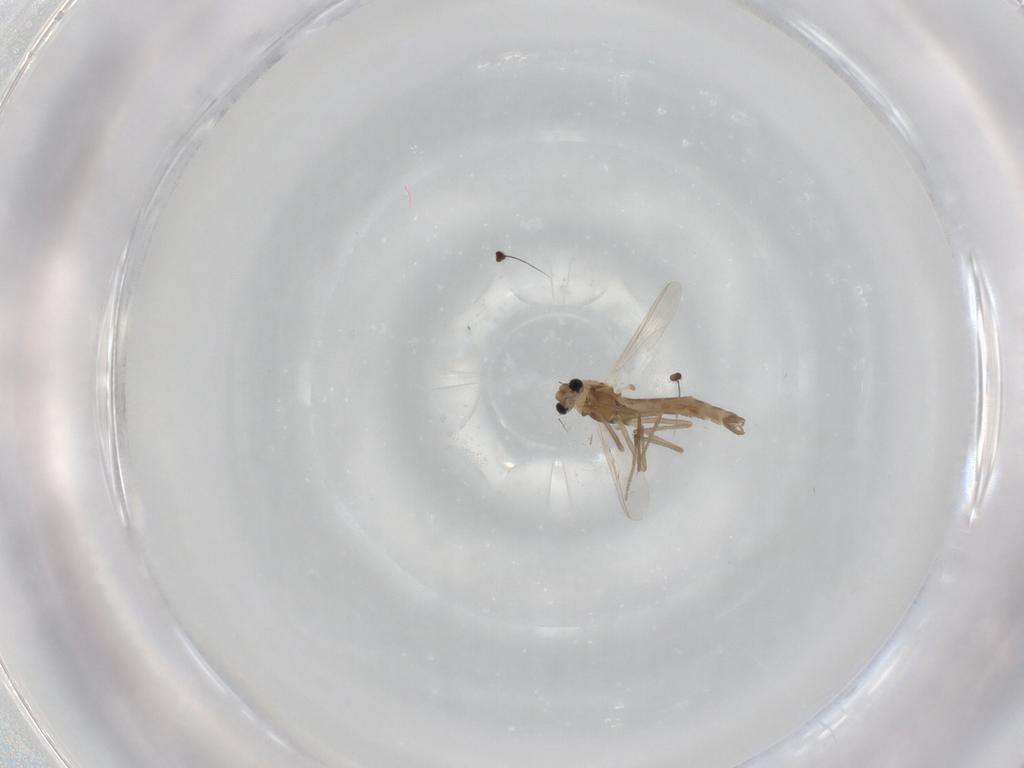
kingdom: Animalia
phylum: Arthropoda
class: Insecta
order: Diptera
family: Chironomidae
